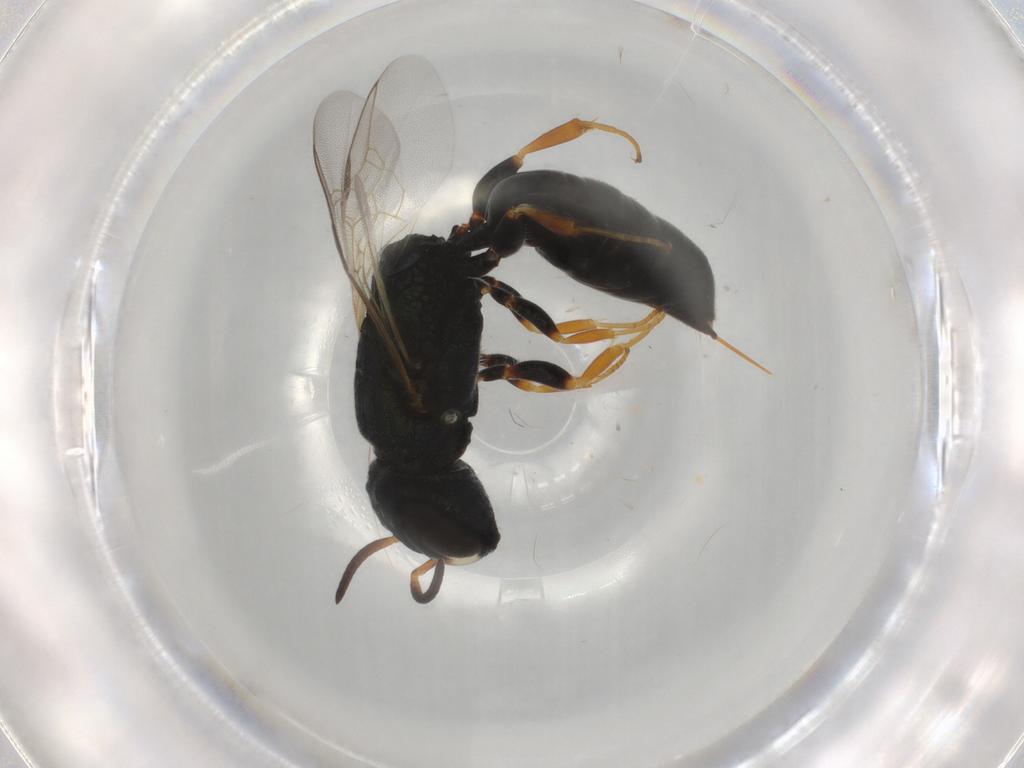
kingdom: Animalia
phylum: Arthropoda
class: Insecta
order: Hymenoptera
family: Crabronidae
